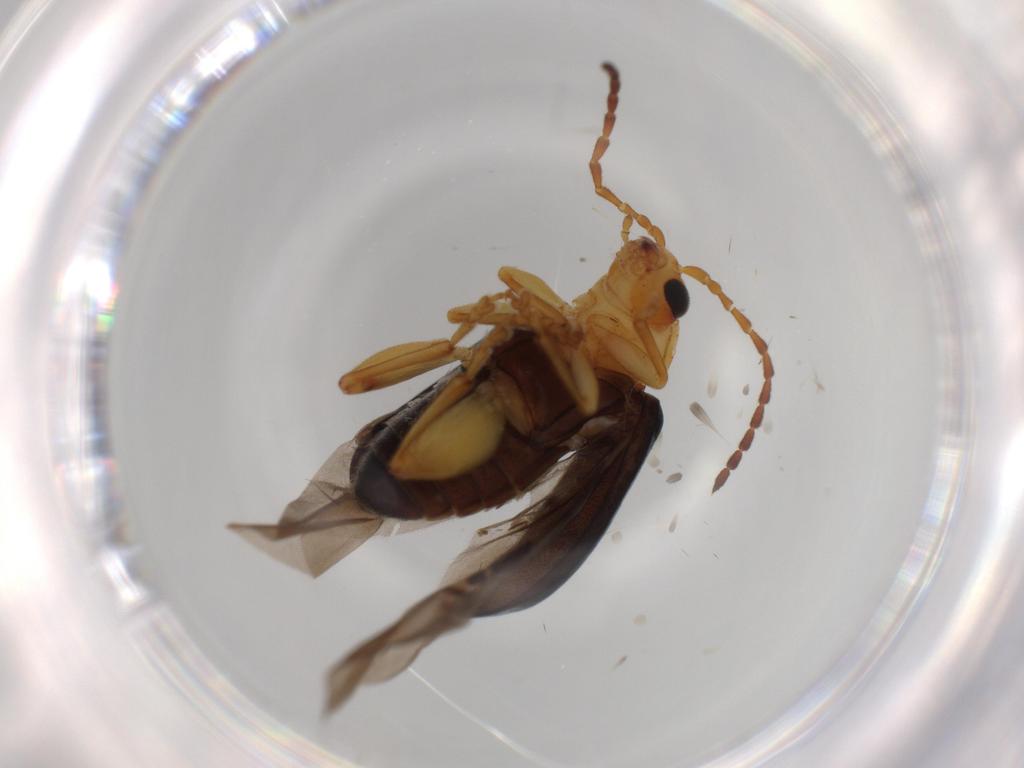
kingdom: Animalia
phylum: Arthropoda
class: Insecta
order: Coleoptera
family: Chrysomelidae
